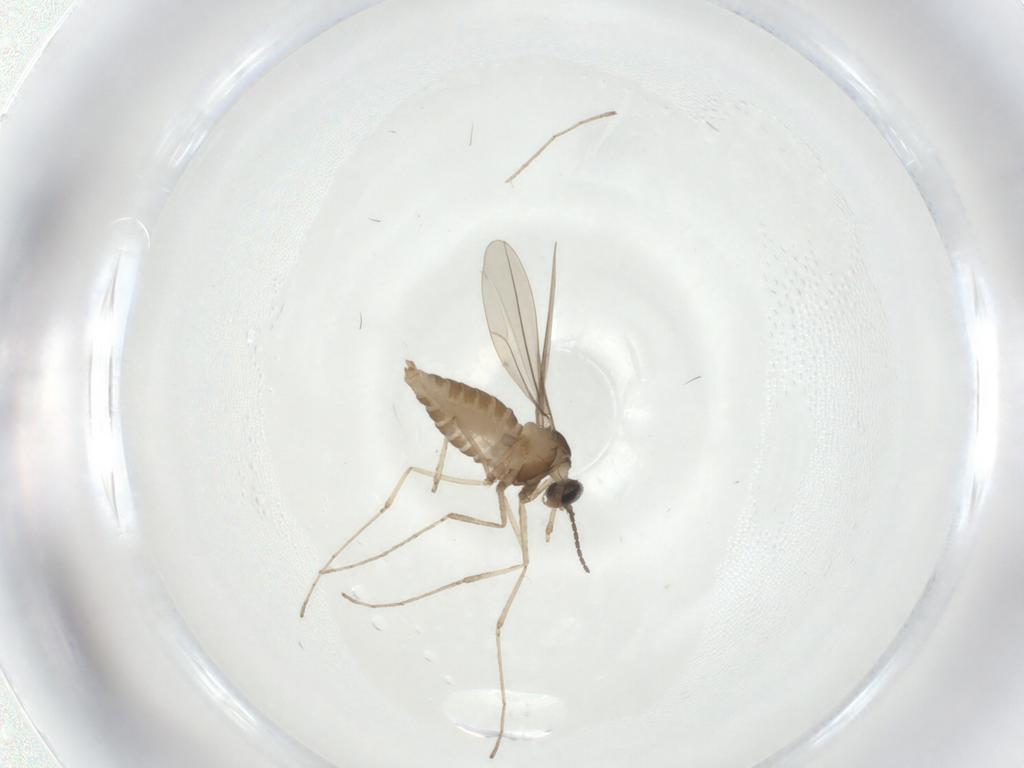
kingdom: Animalia
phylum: Arthropoda
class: Insecta
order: Diptera
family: Cecidomyiidae
